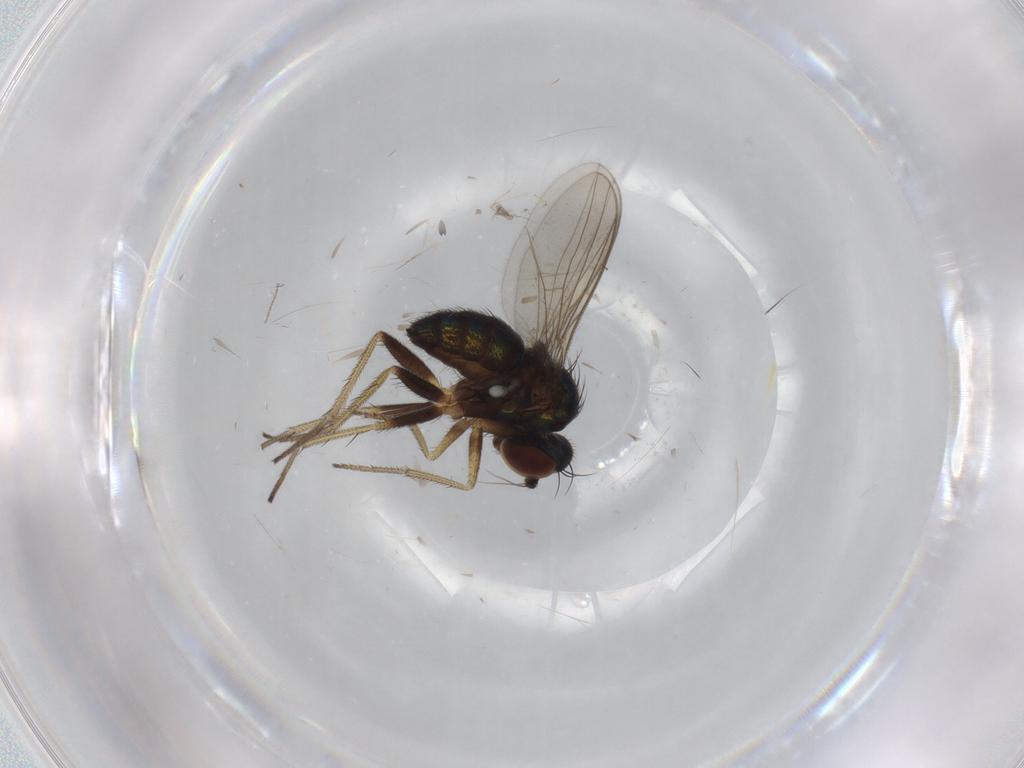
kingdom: Animalia
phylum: Arthropoda
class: Insecta
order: Diptera
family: Dolichopodidae
